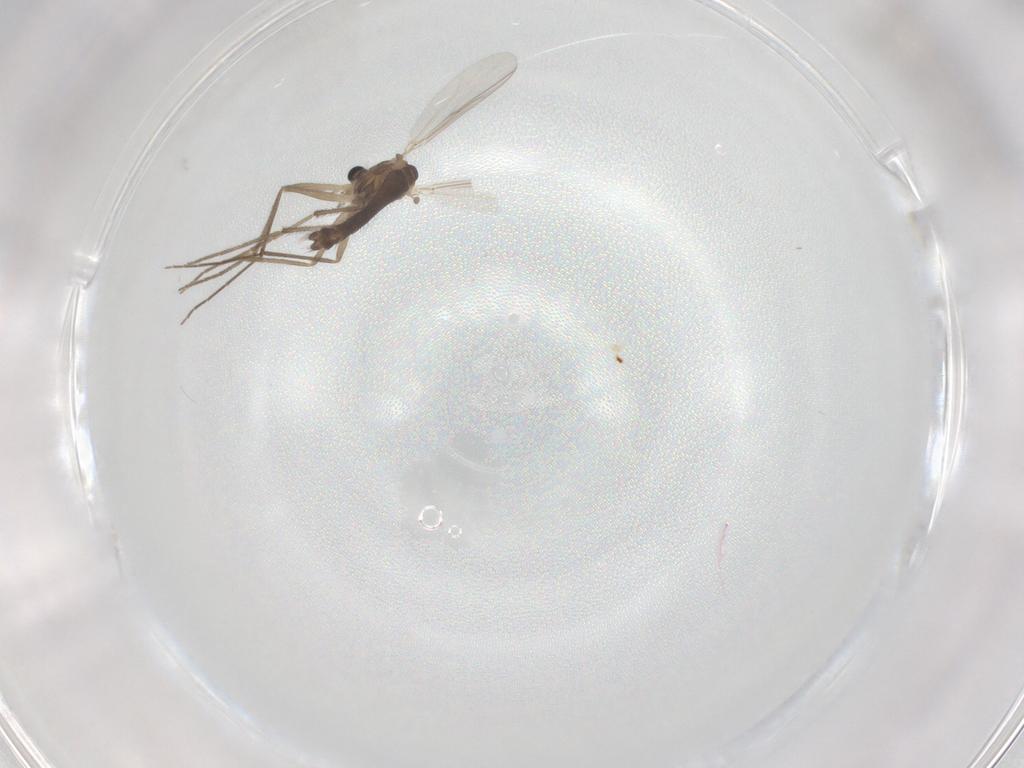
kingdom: Animalia
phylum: Arthropoda
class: Insecta
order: Diptera
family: Chironomidae
